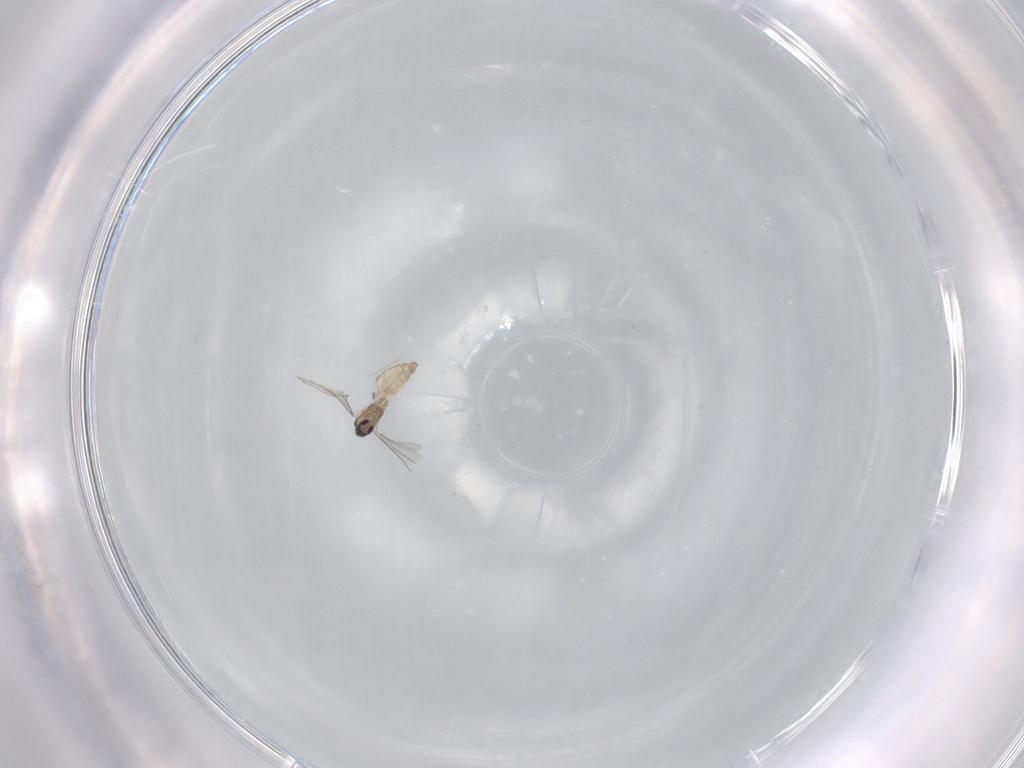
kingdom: Animalia
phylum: Arthropoda
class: Insecta
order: Diptera
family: Cecidomyiidae
